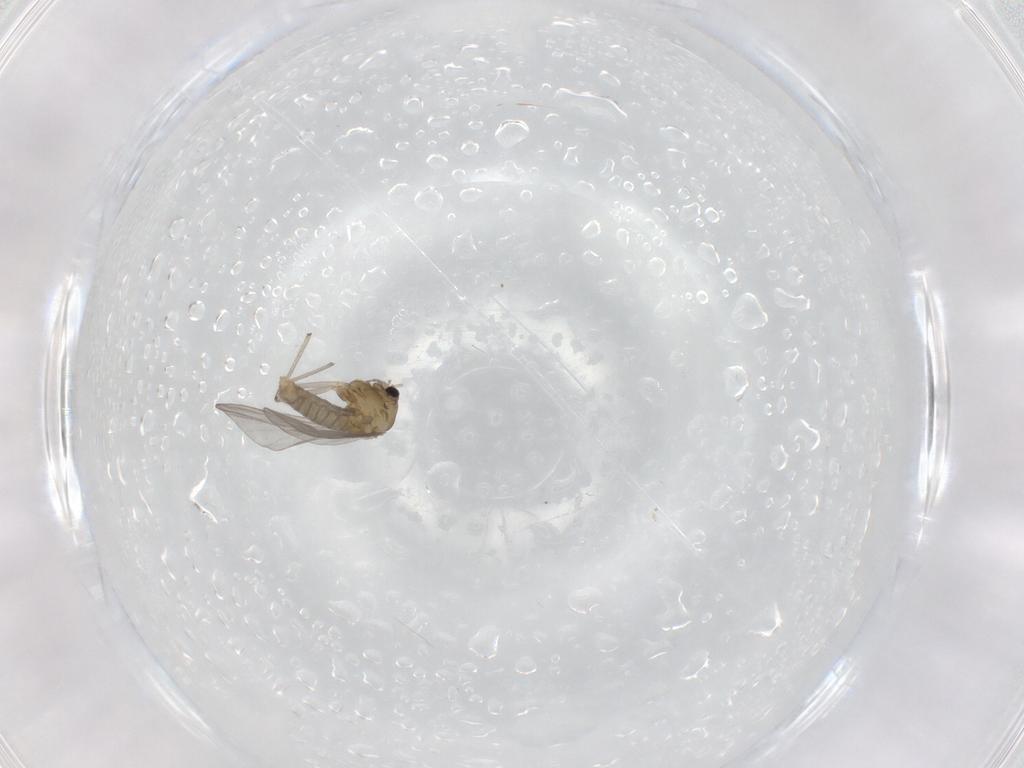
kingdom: Animalia
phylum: Arthropoda
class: Insecta
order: Diptera
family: Chironomidae
